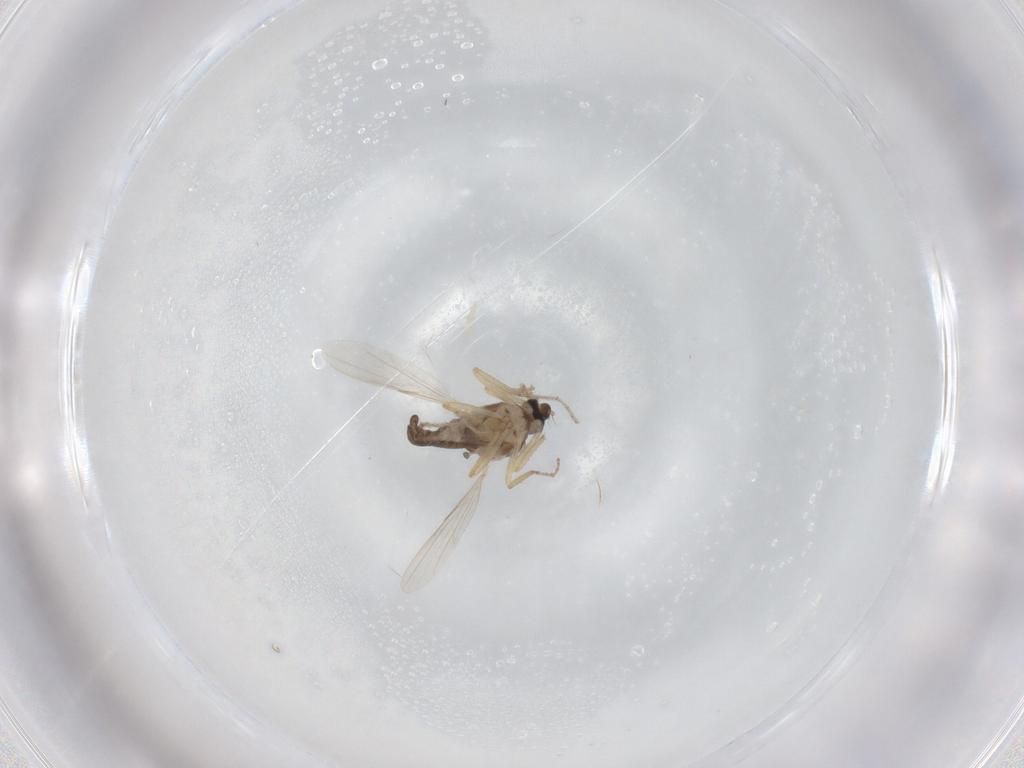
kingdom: Animalia
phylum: Arthropoda
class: Insecta
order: Diptera
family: Ceratopogonidae
